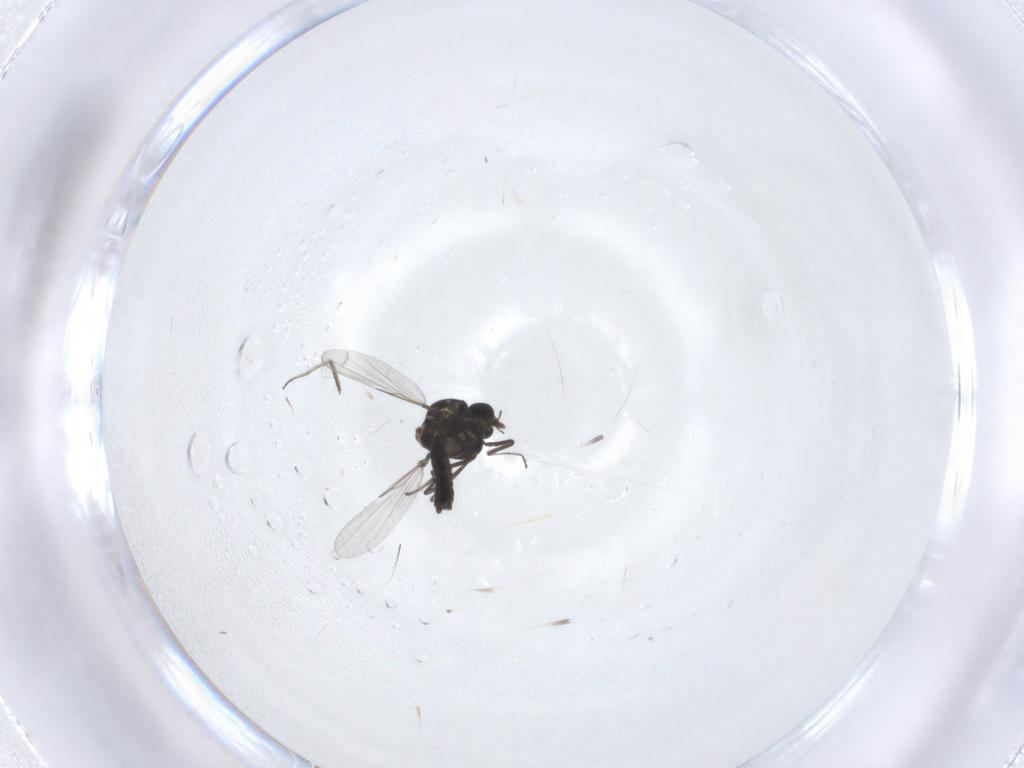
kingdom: Animalia
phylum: Arthropoda
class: Insecta
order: Diptera
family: Ceratopogonidae
